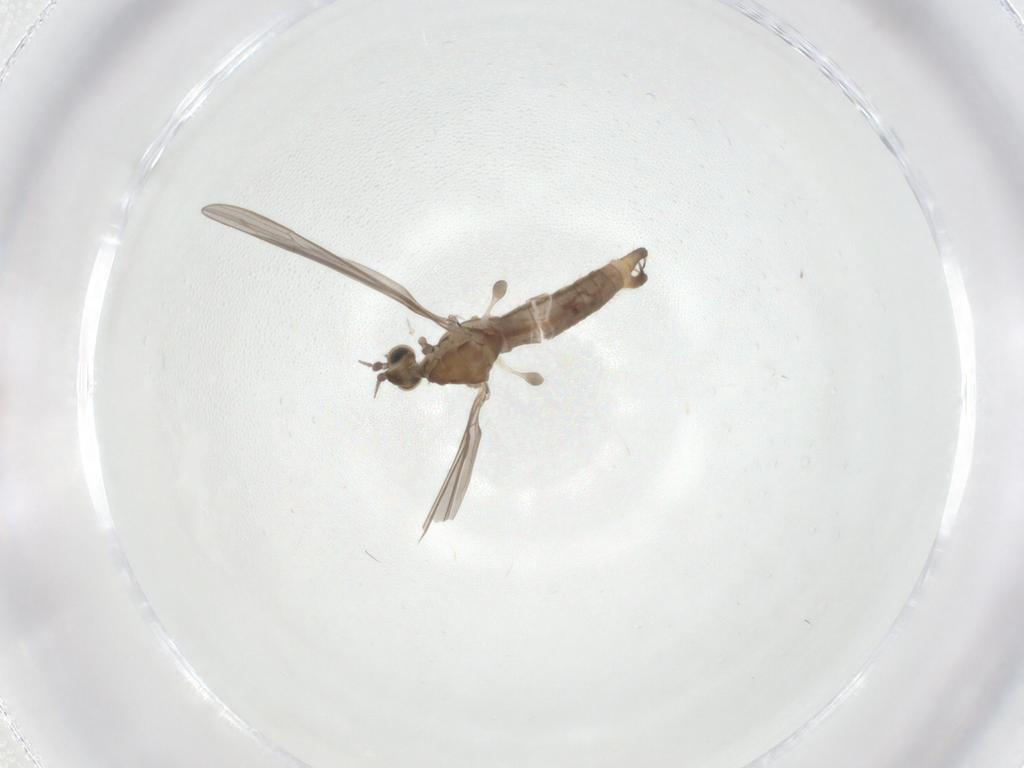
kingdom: Animalia
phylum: Arthropoda
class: Insecta
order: Diptera
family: Limoniidae
